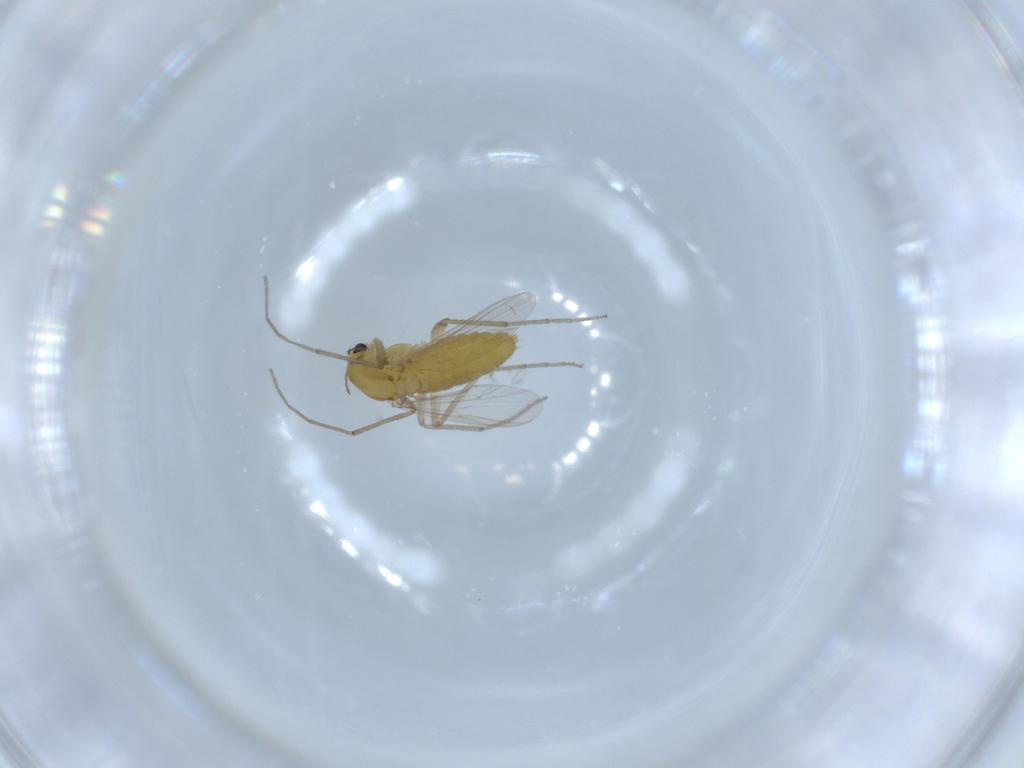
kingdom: Animalia
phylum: Arthropoda
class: Insecta
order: Diptera
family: Chironomidae
